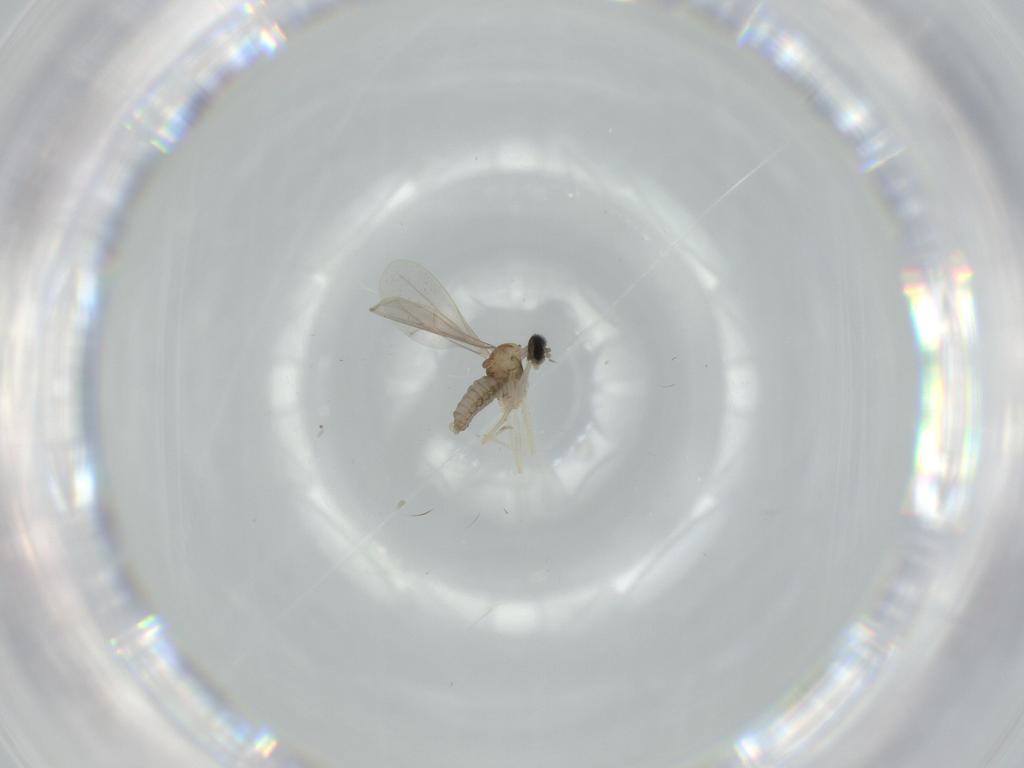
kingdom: Animalia
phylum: Arthropoda
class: Insecta
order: Diptera
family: Cecidomyiidae
